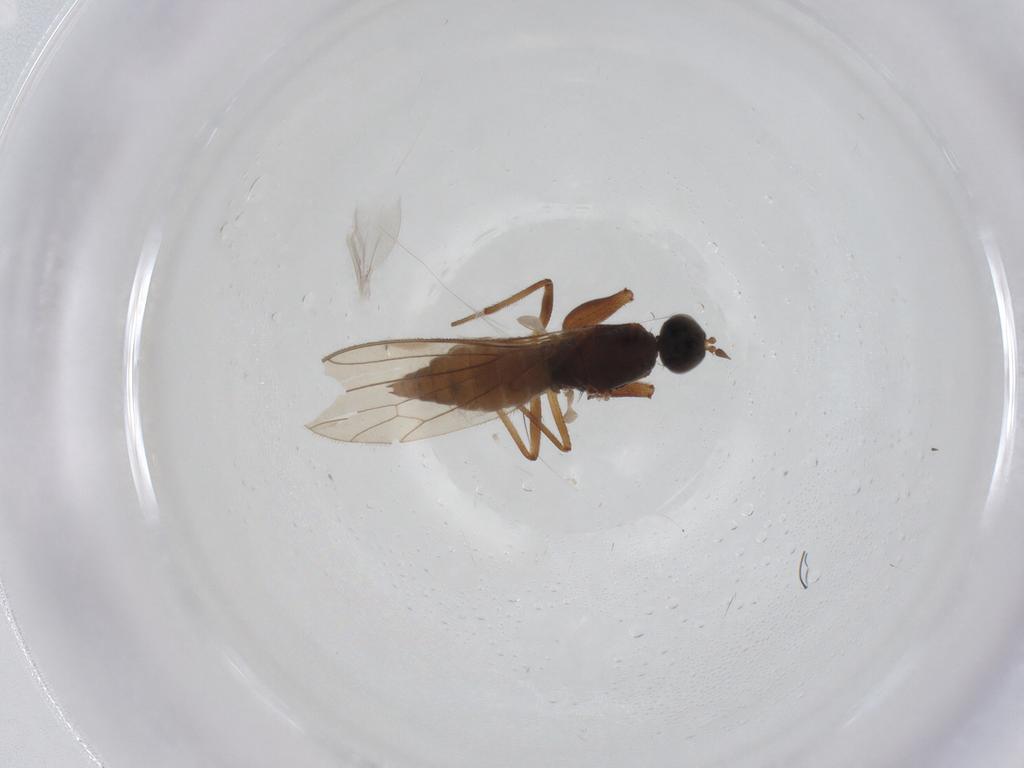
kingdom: Animalia
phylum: Arthropoda
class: Insecta
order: Diptera
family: Empididae
